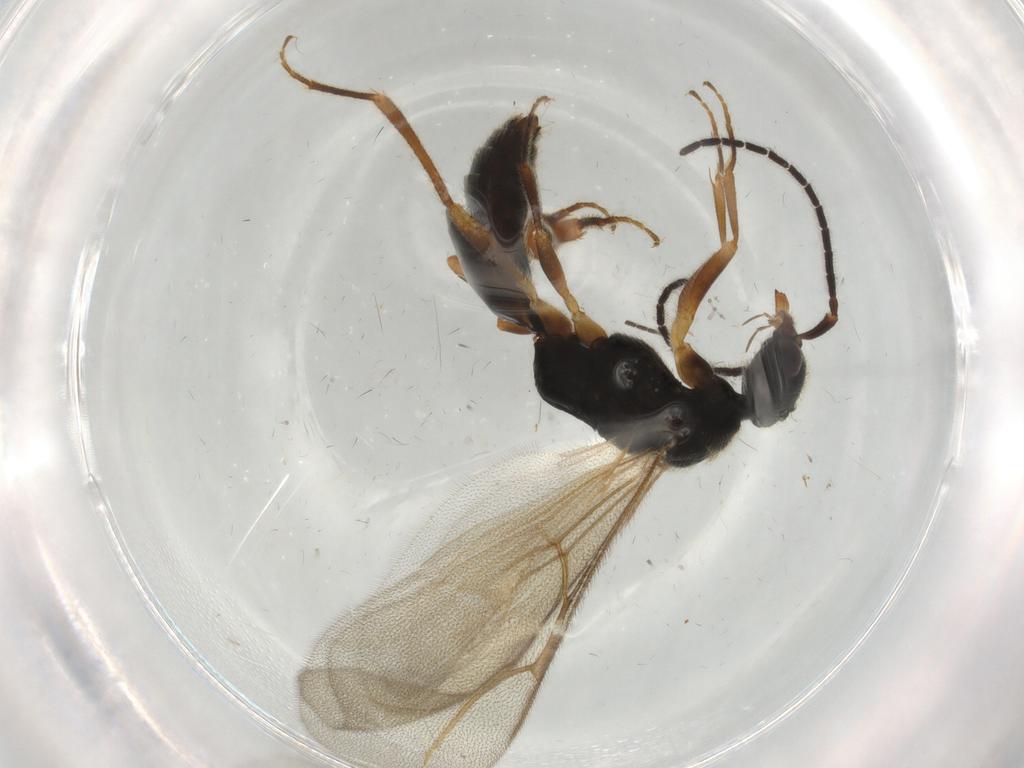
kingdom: Animalia
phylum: Arthropoda
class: Insecta
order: Hymenoptera
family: Bethylidae
